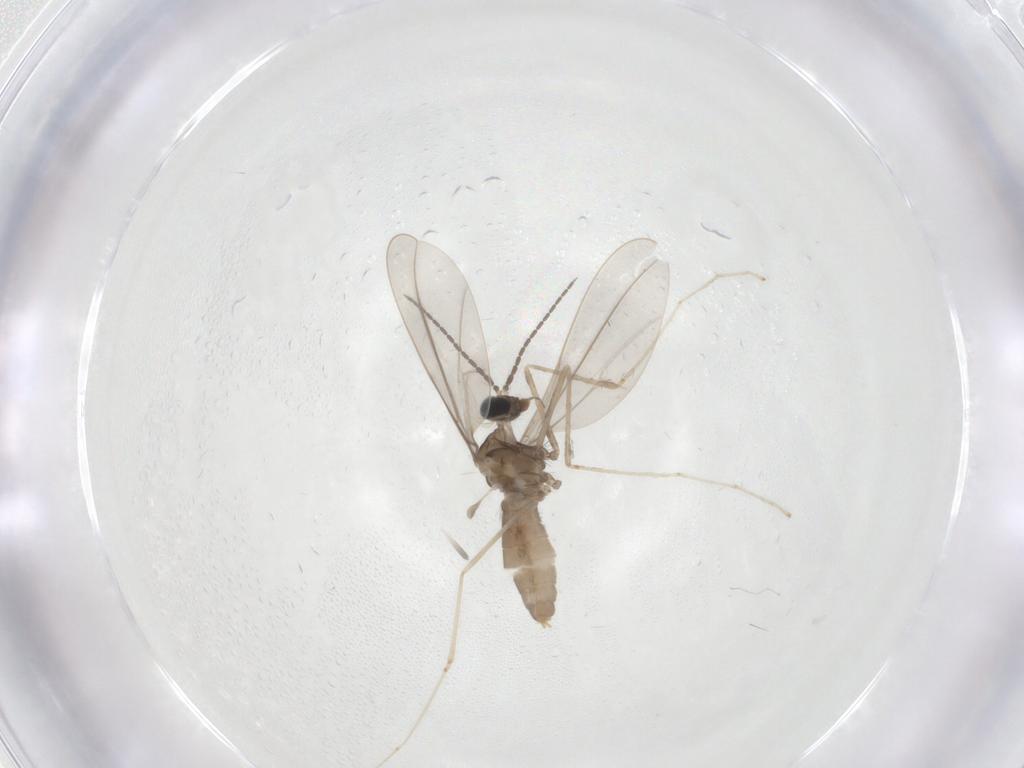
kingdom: Animalia
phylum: Arthropoda
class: Insecta
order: Diptera
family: Cecidomyiidae
